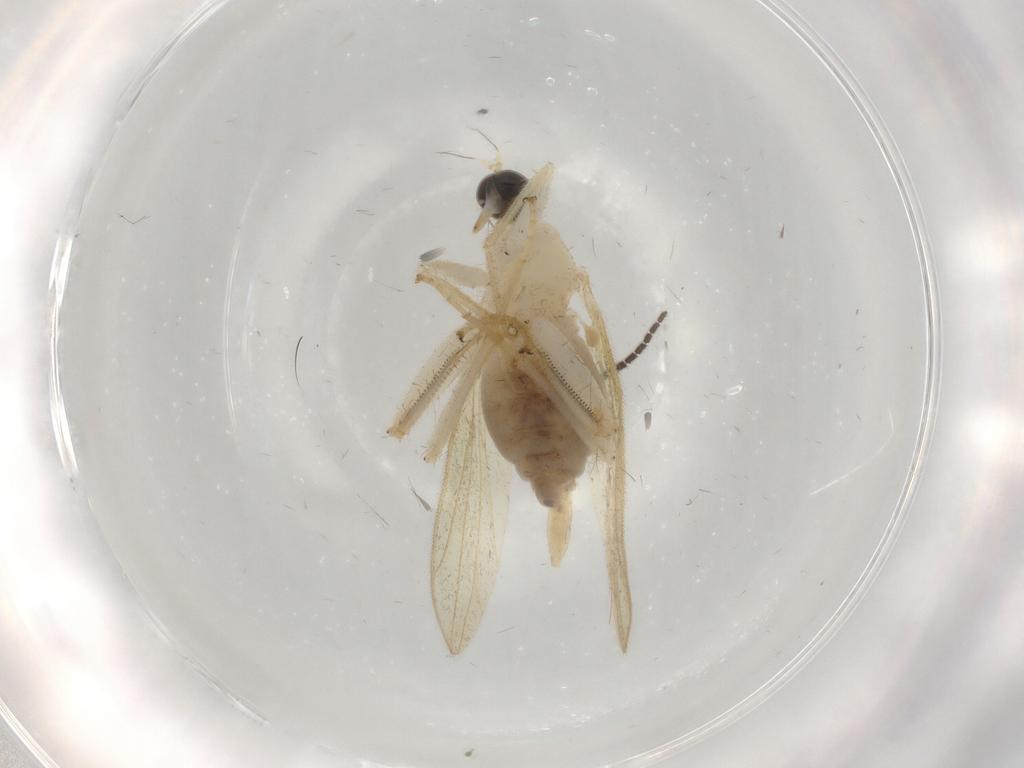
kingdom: Animalia
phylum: Arthropoda
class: Insecta
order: Diptera
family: Hybotidae
